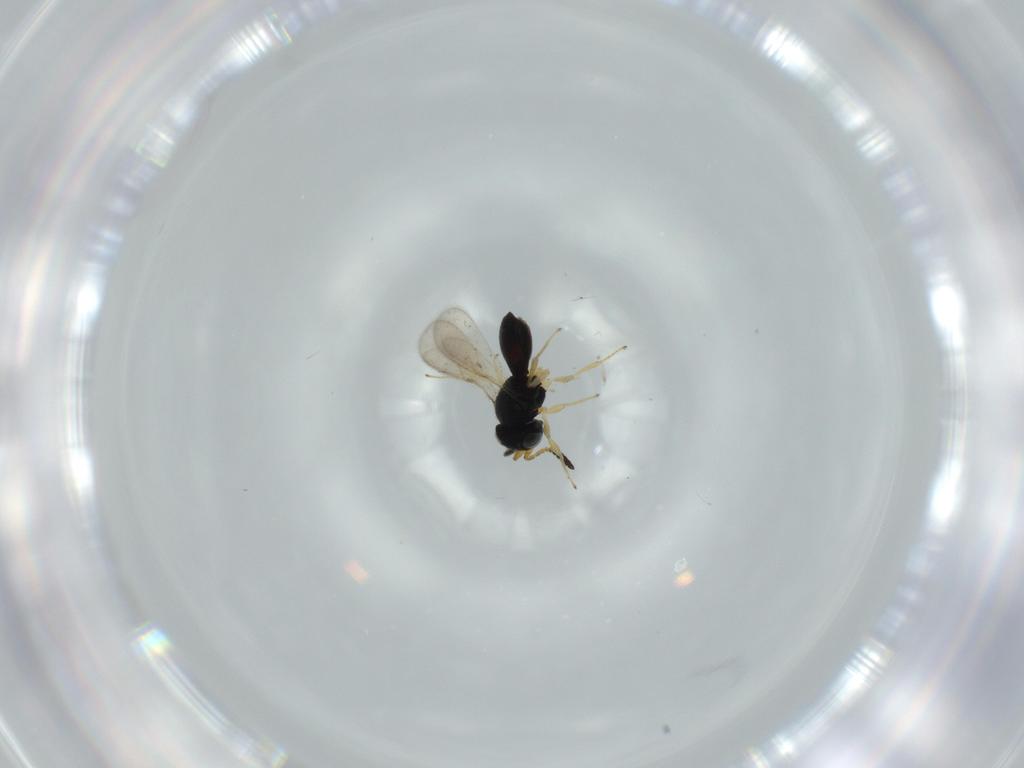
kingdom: Animalia
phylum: Arthropoda
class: Insecta
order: Hymenoptera
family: Scelionidae
